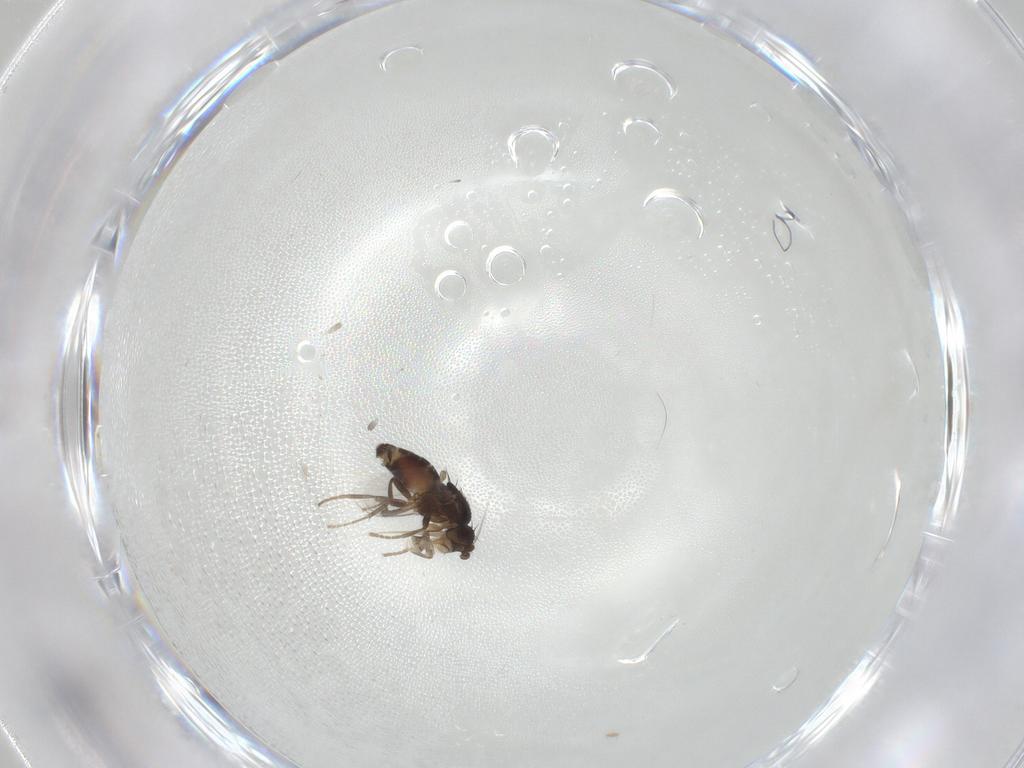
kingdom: Animalia
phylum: Arthropoda
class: Insecta
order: Diptera
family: Sphaeroceridae
